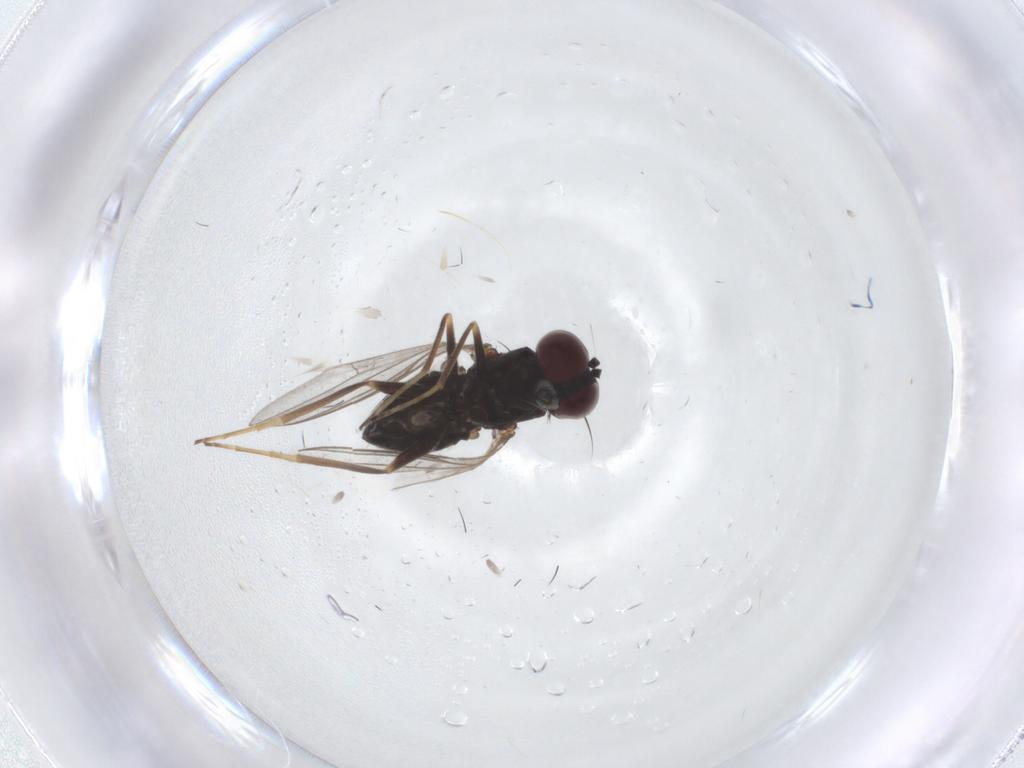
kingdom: Animalia
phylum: Arthropoda
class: Insecta
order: Diptera
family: Dolichopodidae
